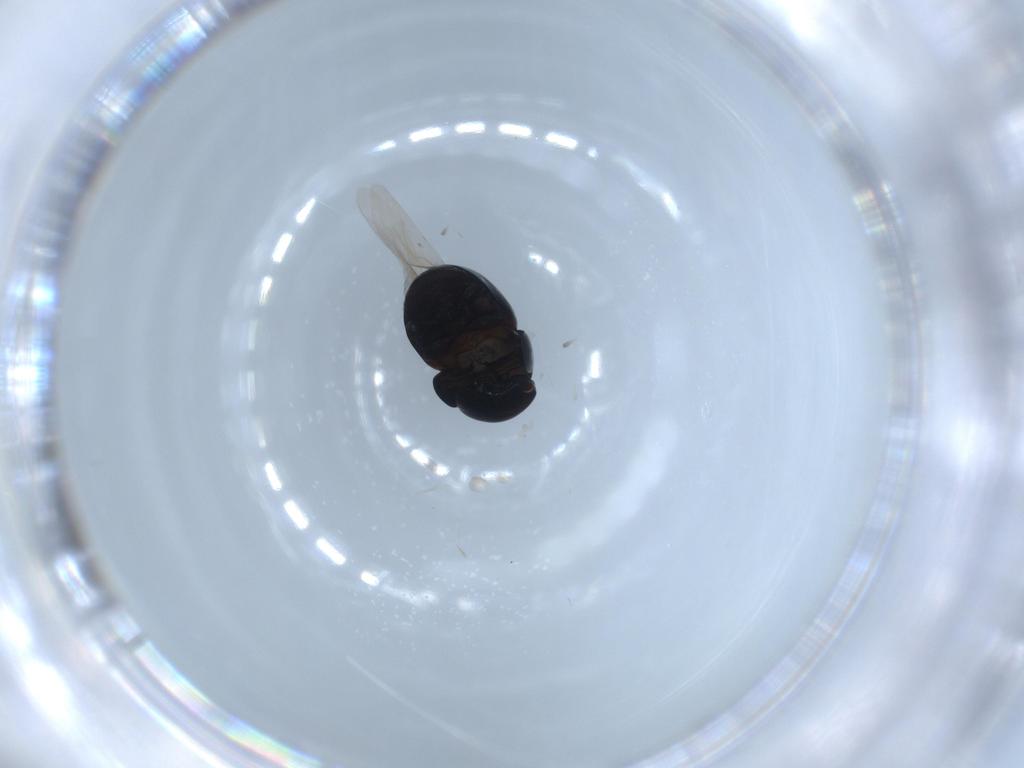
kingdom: Animalia
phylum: Arthropoda
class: Insecta
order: Coleoptera
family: Cybocephalidae
